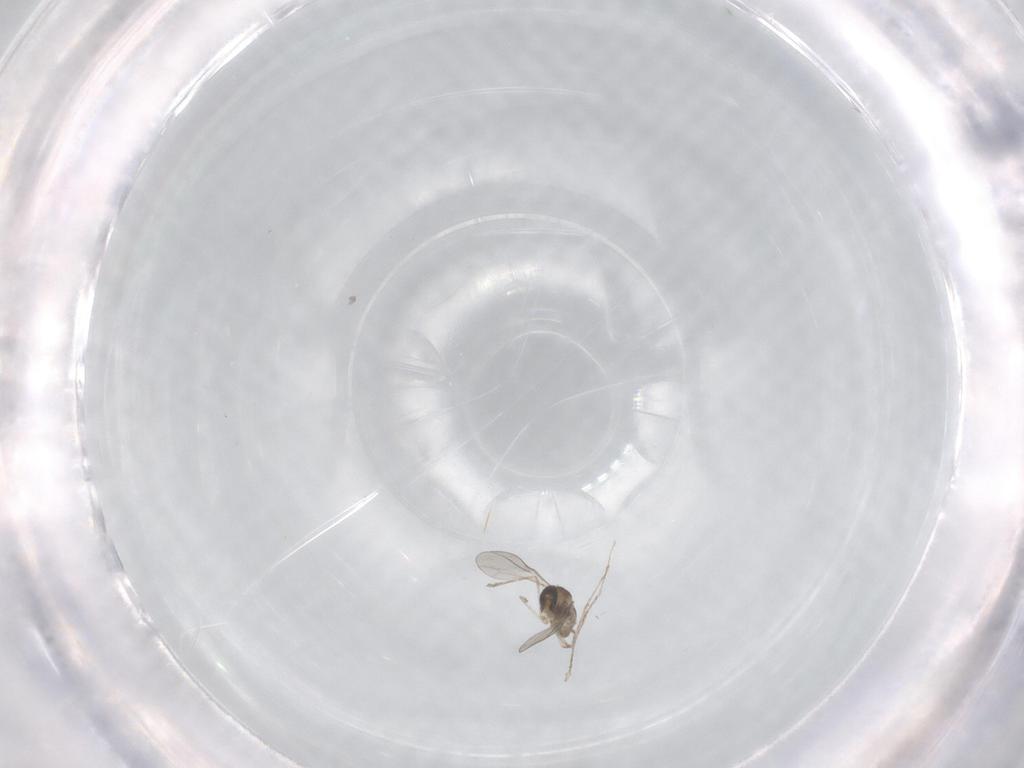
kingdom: Animalia
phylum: Arthropoda
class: Insecta
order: Diptera
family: Chironomidae
